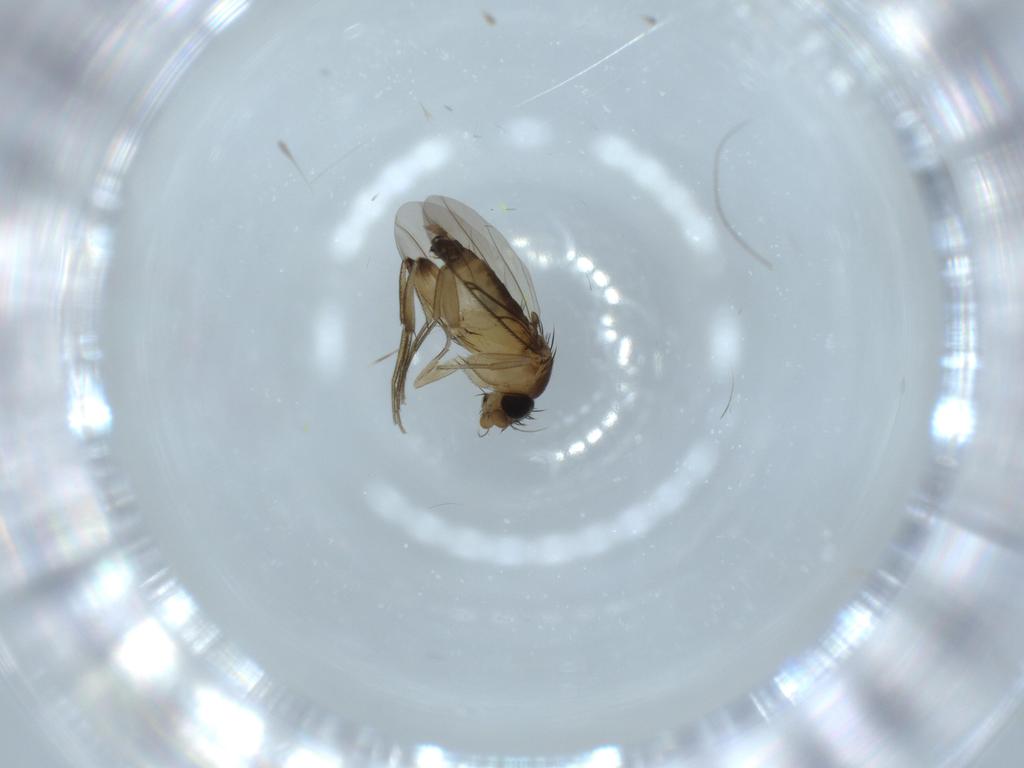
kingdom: Animalia
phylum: Arthropoda
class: Insecta
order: Diptera
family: Phoridae
